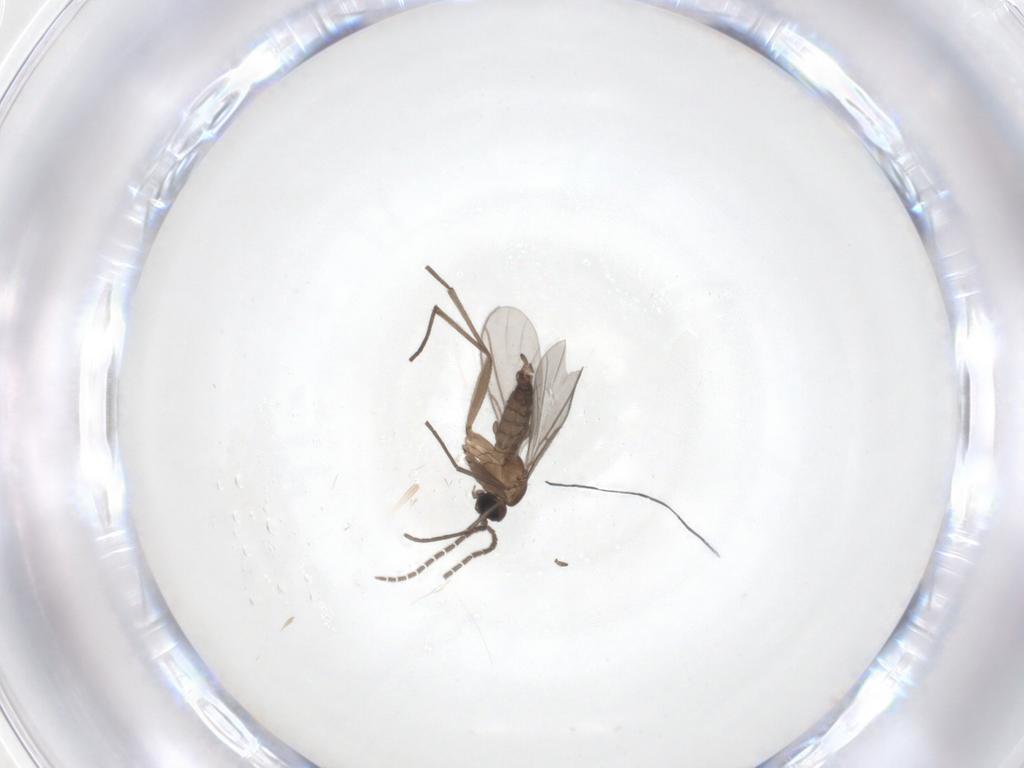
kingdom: Animalia
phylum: Arthropoda
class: Insecta
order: Diptera
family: Sciaridae
